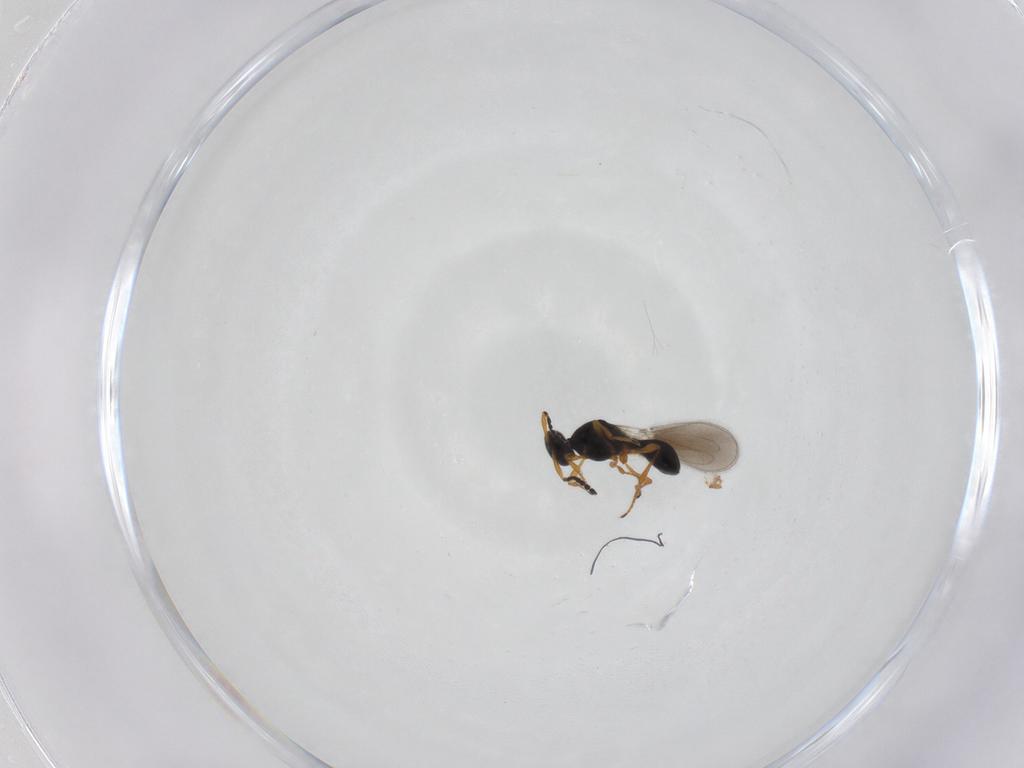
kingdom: Animalia
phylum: Arthropoda
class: Insecta
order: Hymenoptera
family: Platygastridae
